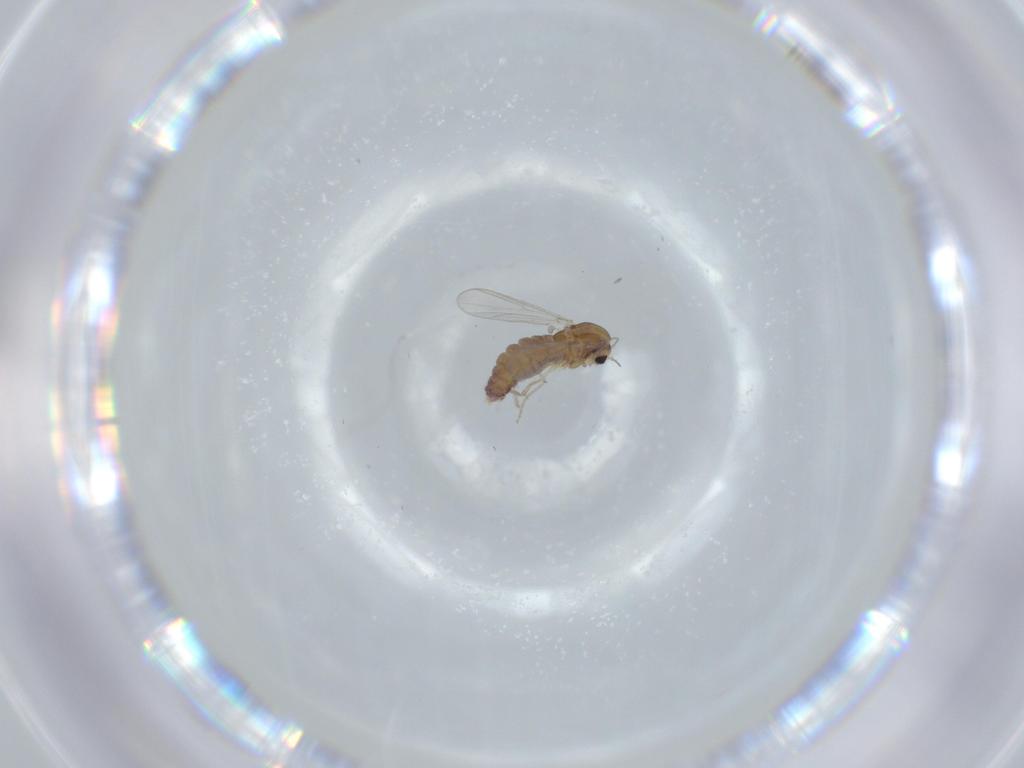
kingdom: Animalia
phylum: Arthropoda
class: Insecta
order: Diptera
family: Chironomidae
